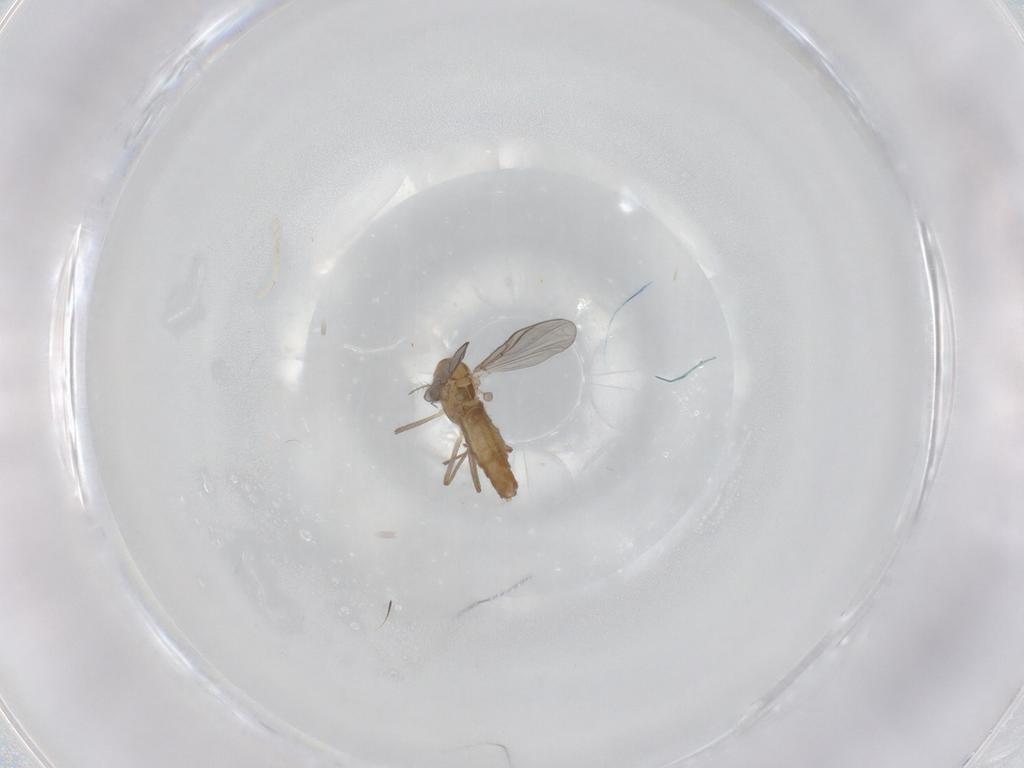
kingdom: Animalia
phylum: Arthropoda
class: Insecta
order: Diptera
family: Chironomidae
